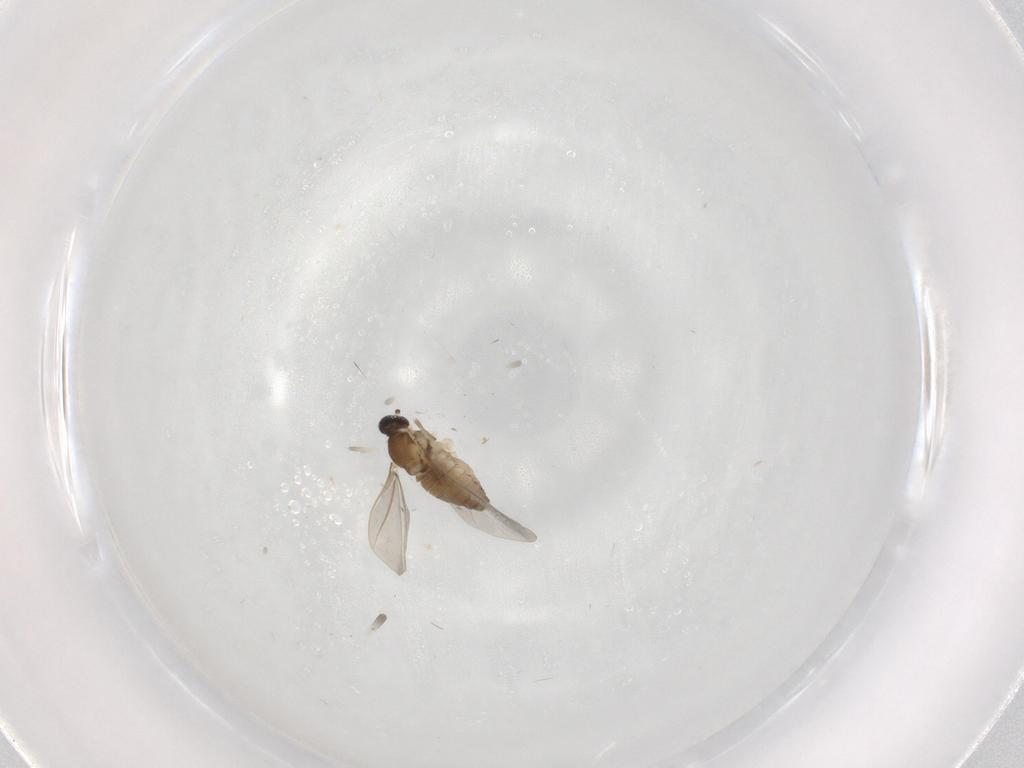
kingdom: Animalia
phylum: Arthropoda
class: Insecta
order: Diptera
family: Cecidomyiidae
